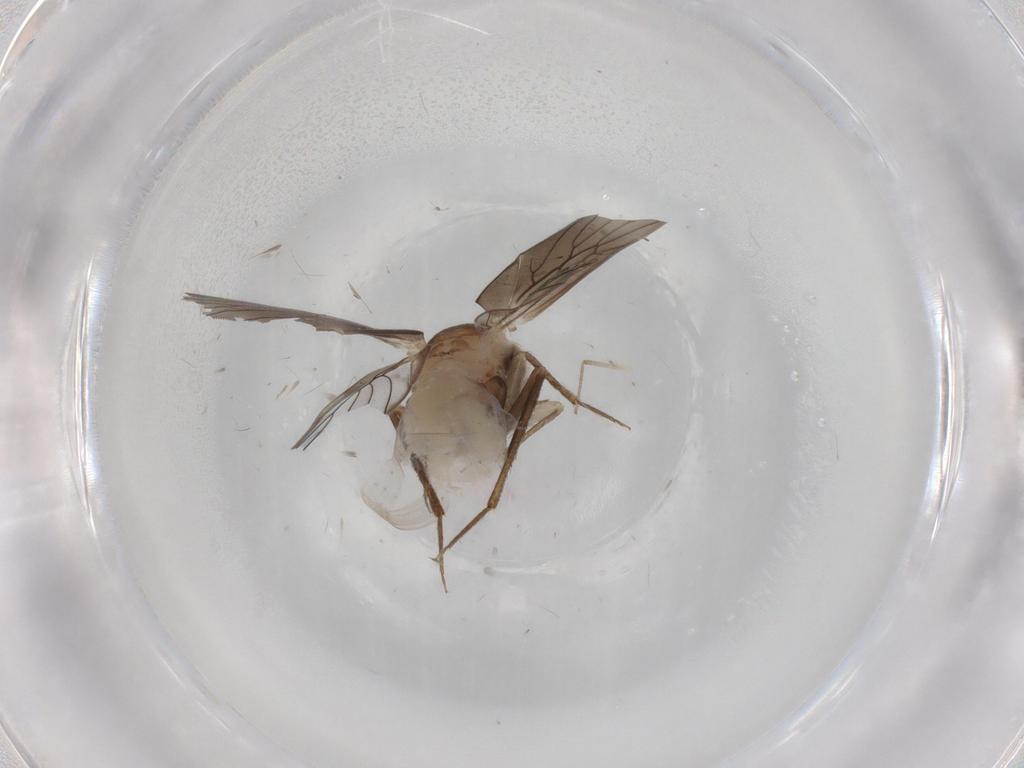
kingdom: Animalia
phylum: Arthropoda
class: Insecta
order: Psocodea
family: Lepidopsocidae
